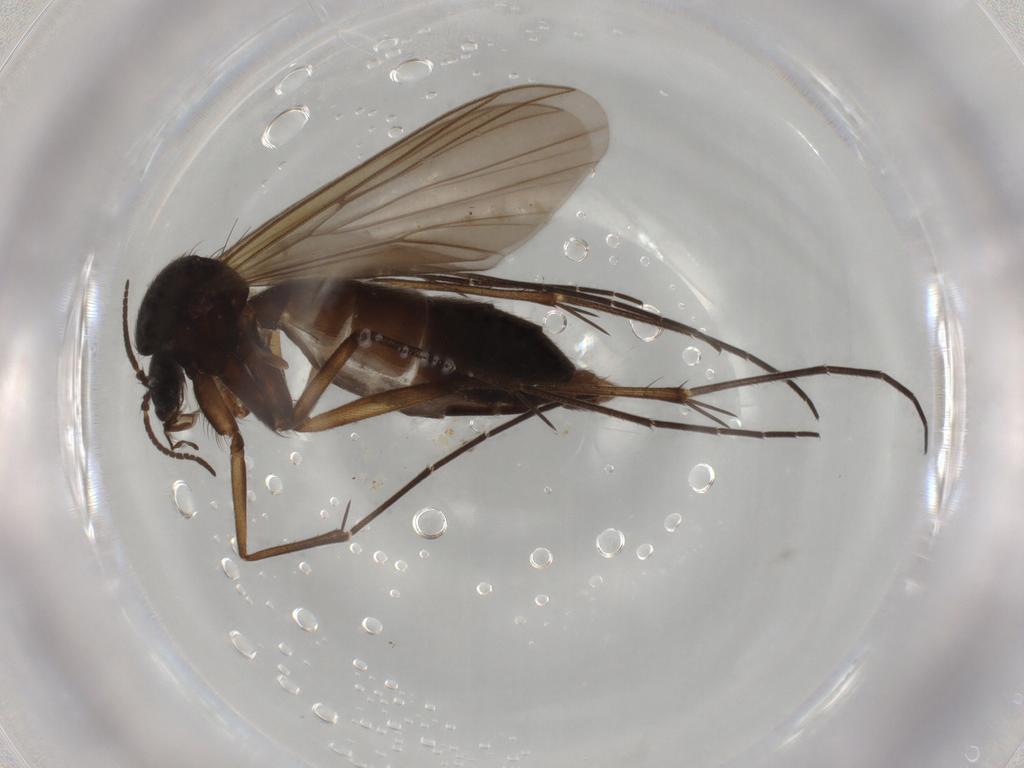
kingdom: Animalia
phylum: Arthropoda
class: Insecta
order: Diptera
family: Mycetophilidae
